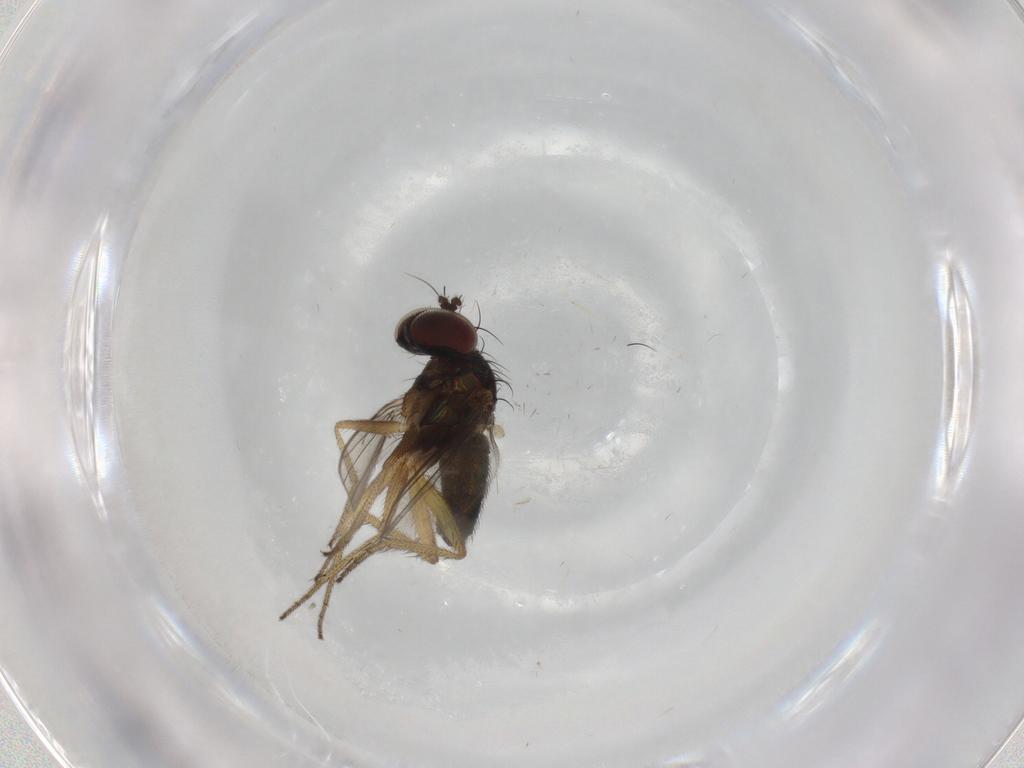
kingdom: Animalia
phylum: Arthropoda
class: Insecta
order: Diptera
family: Dolichopodidae
